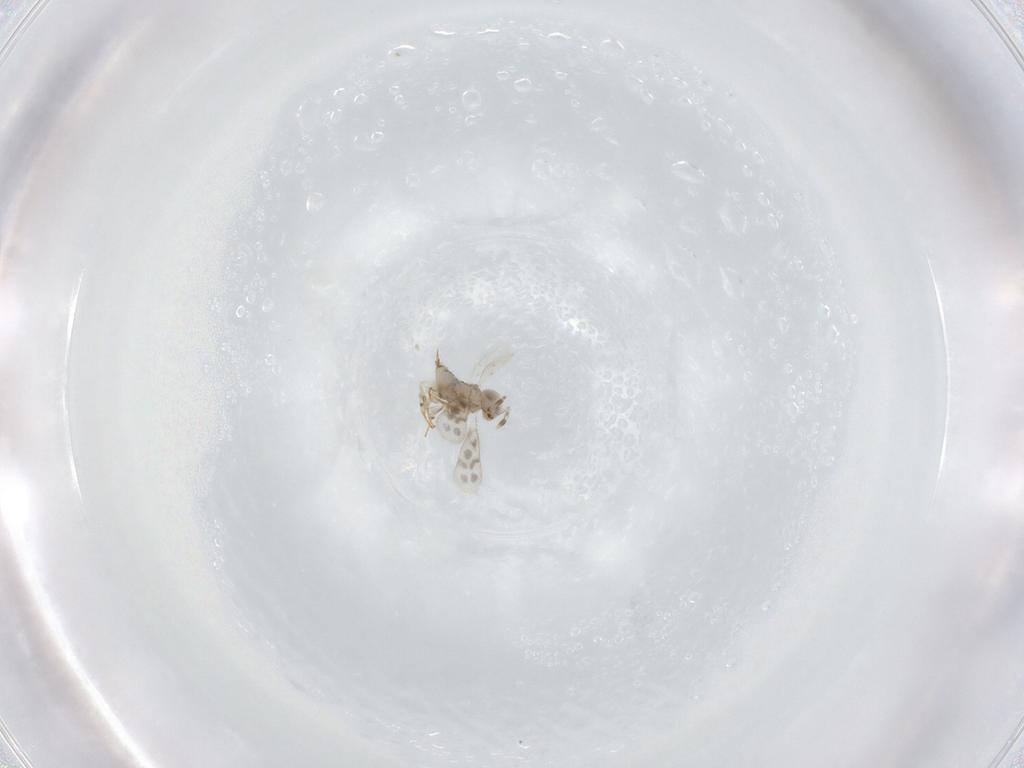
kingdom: Animalia
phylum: Arthropoda
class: Insecta
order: Hymenoptera
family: Aphelinidae
